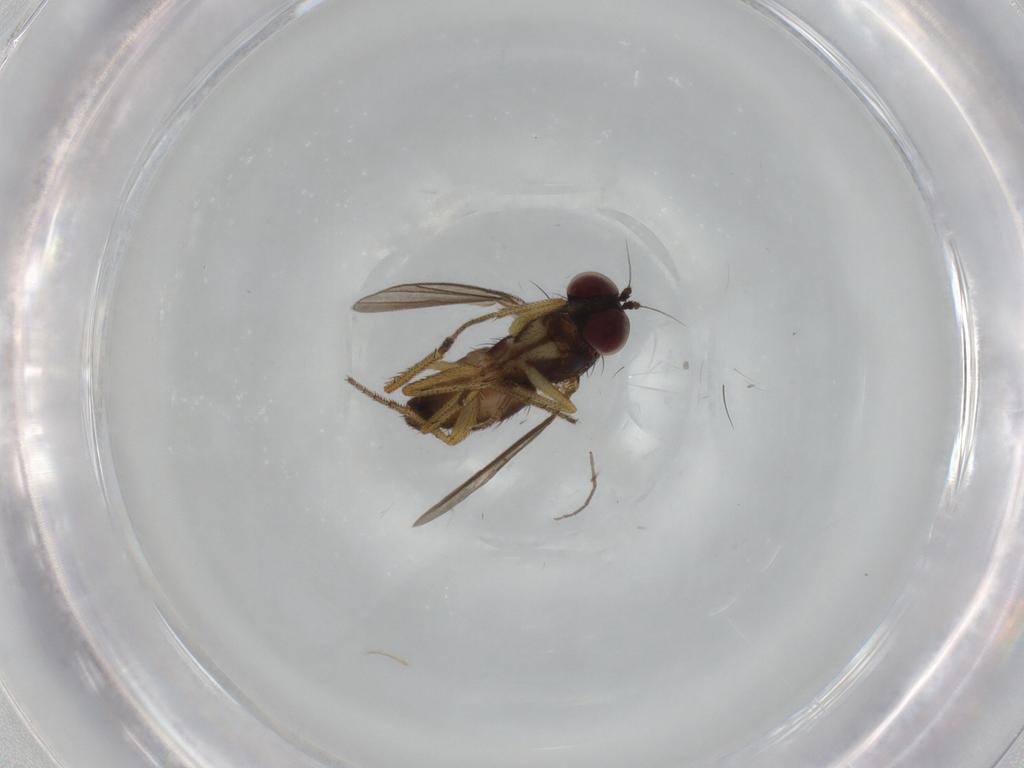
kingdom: Animalia
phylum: Arthropoda
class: Insecta
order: Diptera
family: Dolichopodidae
